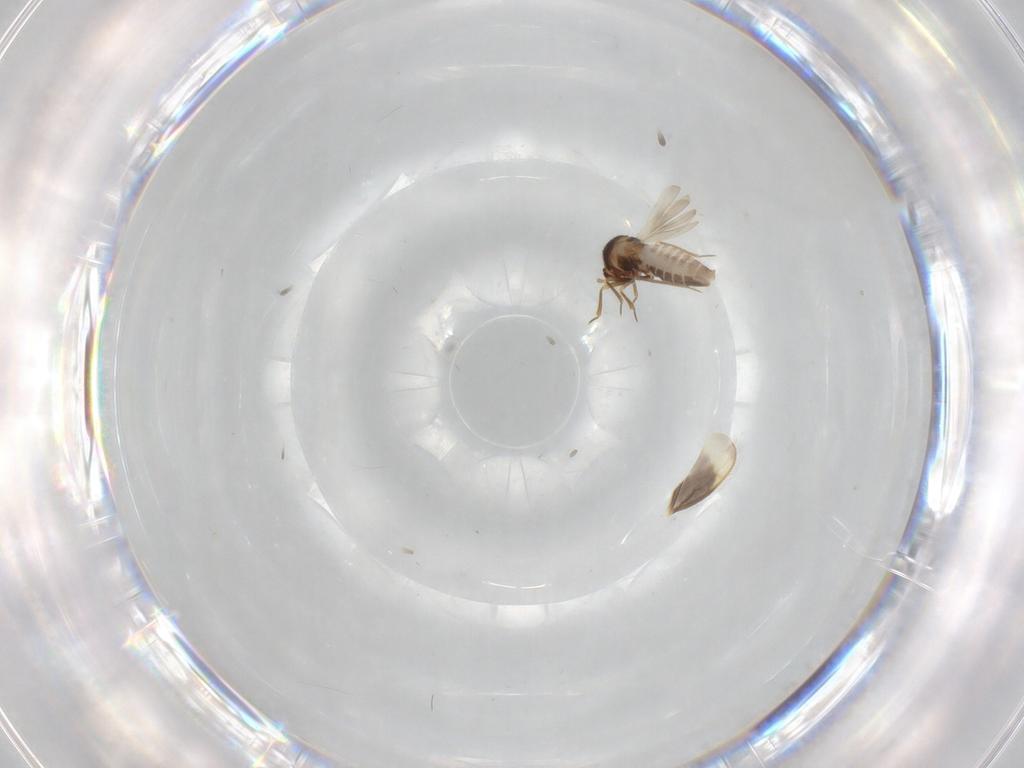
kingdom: Animalia
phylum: Arthropoda
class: Insecta
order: Hemiptera
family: Schizopteridae
